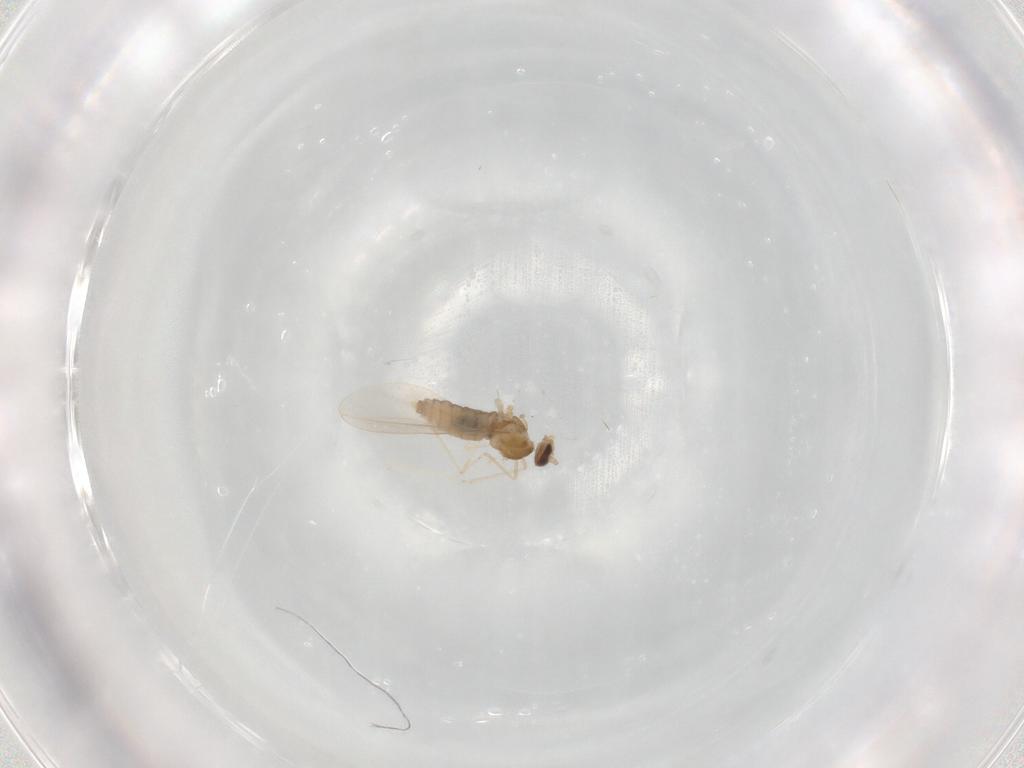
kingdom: Animalia
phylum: Arthropoda
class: Insecta
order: Diptera
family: Cecidomyiidae
